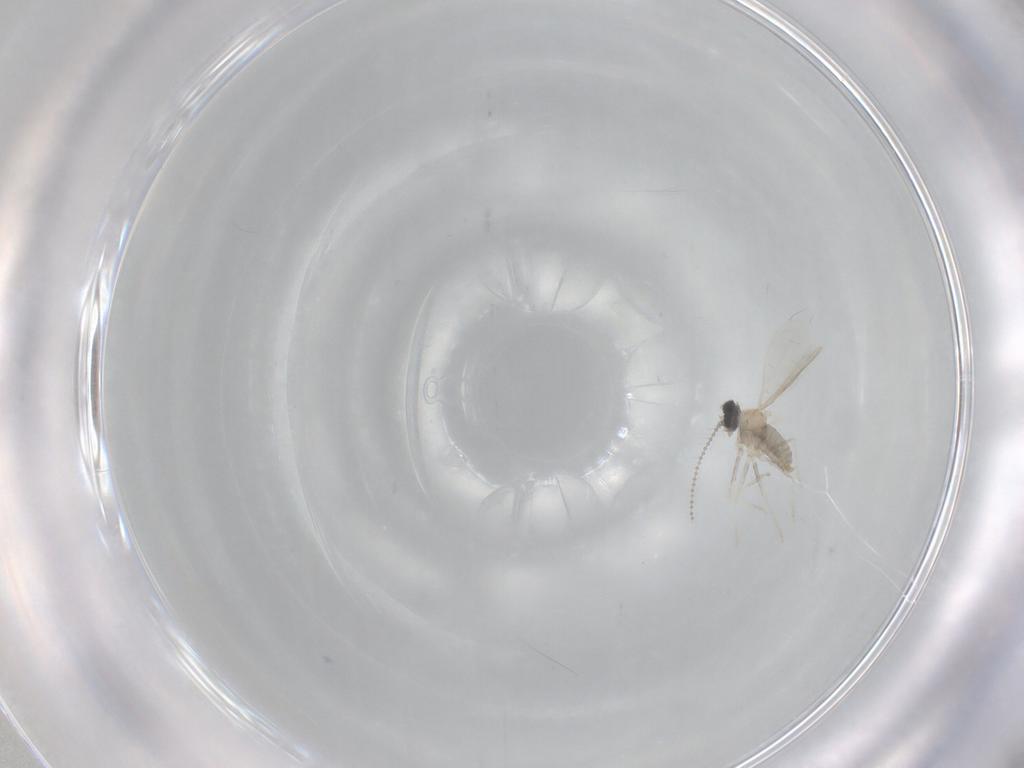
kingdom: Animalia
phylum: Arthropoda
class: Insecta
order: Diptera
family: Cecidomyiidae
